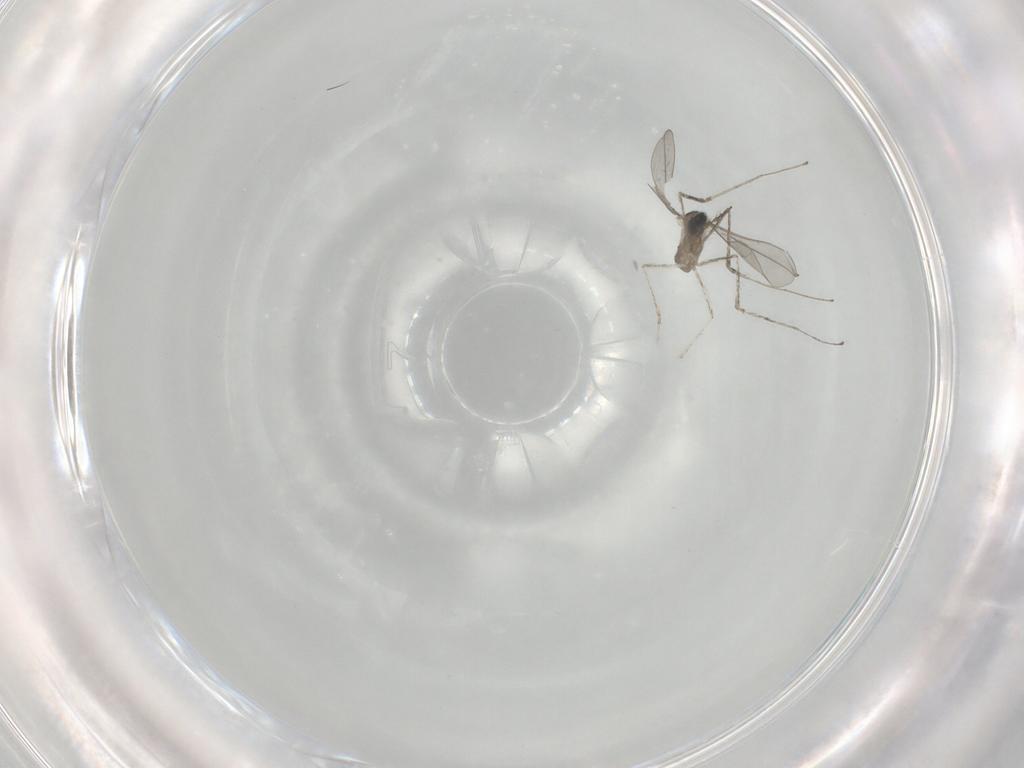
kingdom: Animalia
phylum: Arthropoda
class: Insecta
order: Diptera
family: Cecidomyiidae
